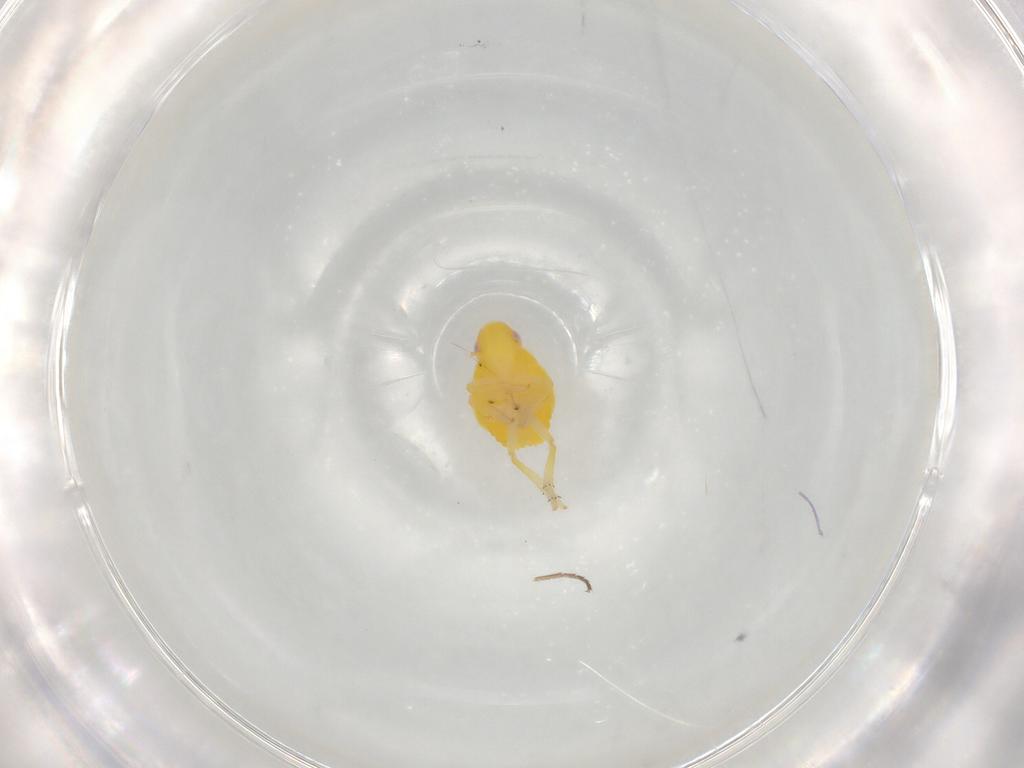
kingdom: Animalia
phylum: Arthropoda
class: Insecta
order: Hemiptera
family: Aleyrodidae
